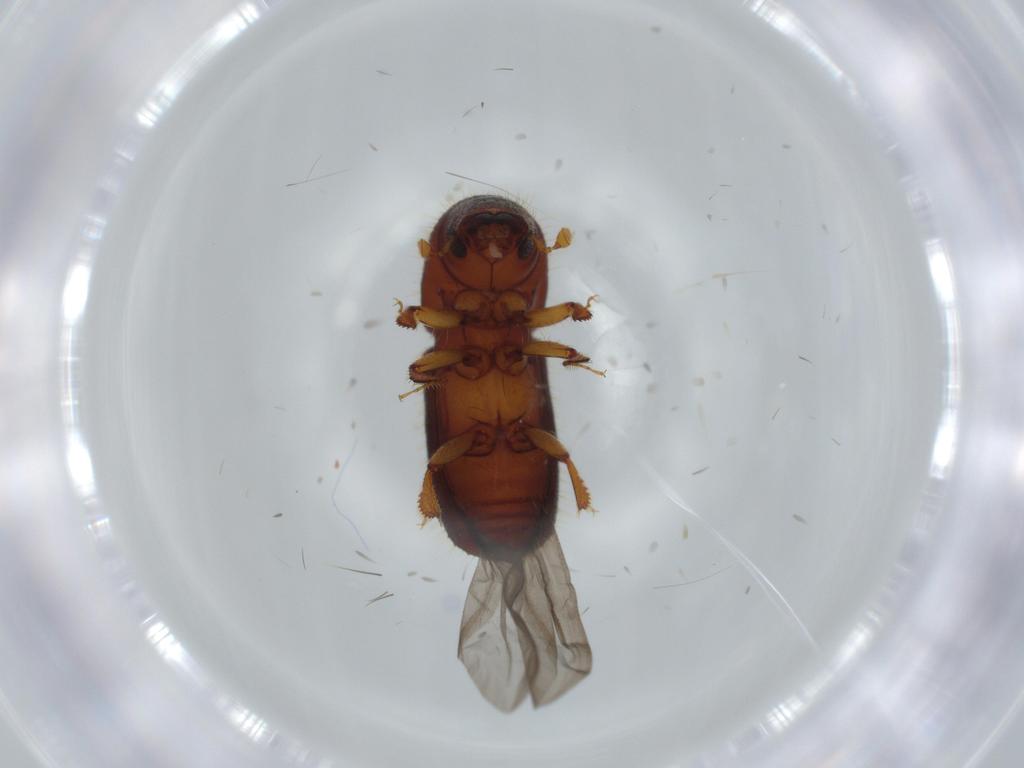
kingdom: Animalia
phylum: Arthropoda
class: Insecta
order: Coleoptera
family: Curculionidae
